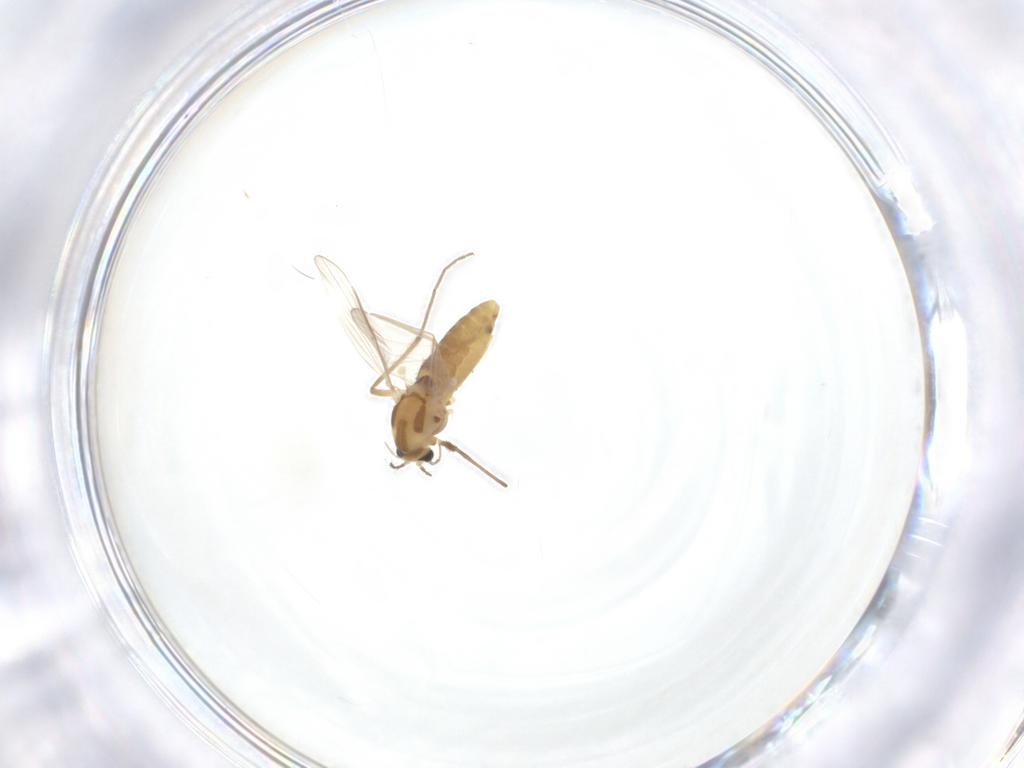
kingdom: Animalia
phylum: Arthropoda
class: Insecta
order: Diptera
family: Chironomidae
